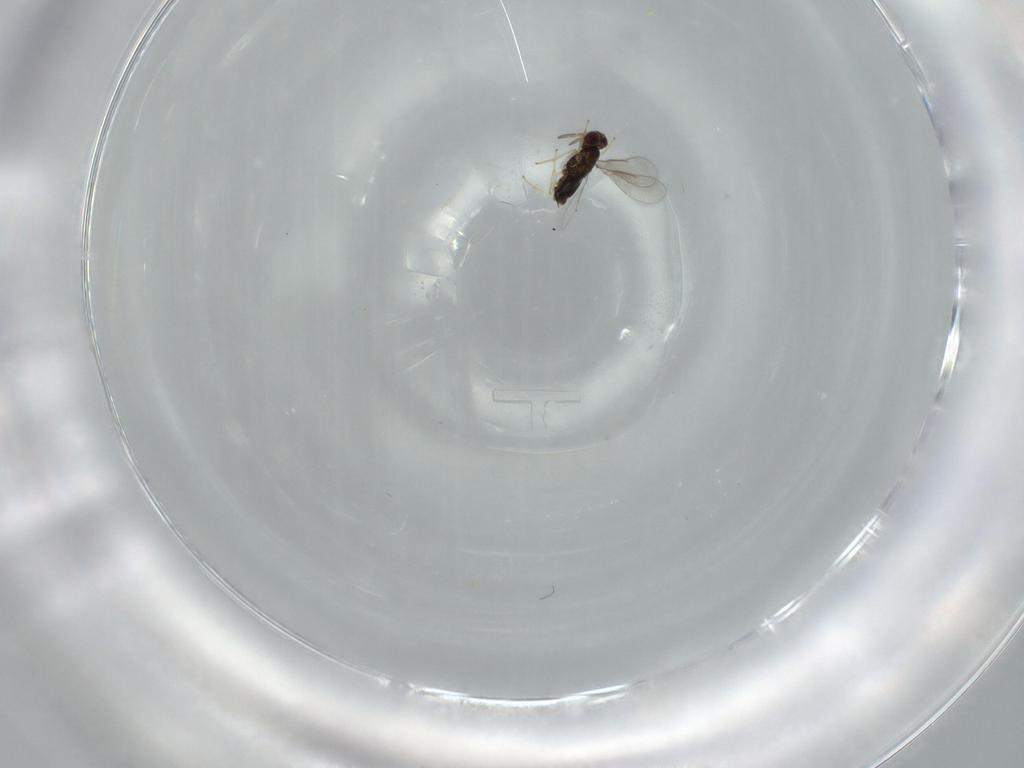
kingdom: Animalia
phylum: Arthropoda
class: Insecta
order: Hymenoptera
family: Aphelinidae
